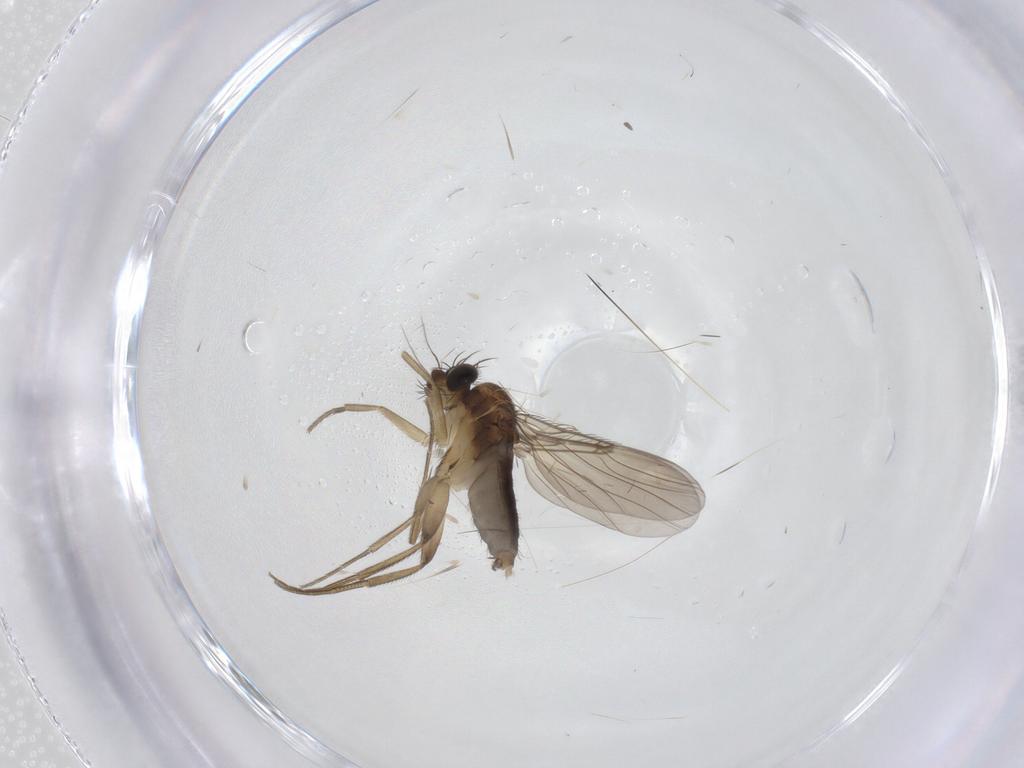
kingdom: Animalia
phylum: Arthropoda
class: Insecta
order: Diptera
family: Phoridae
